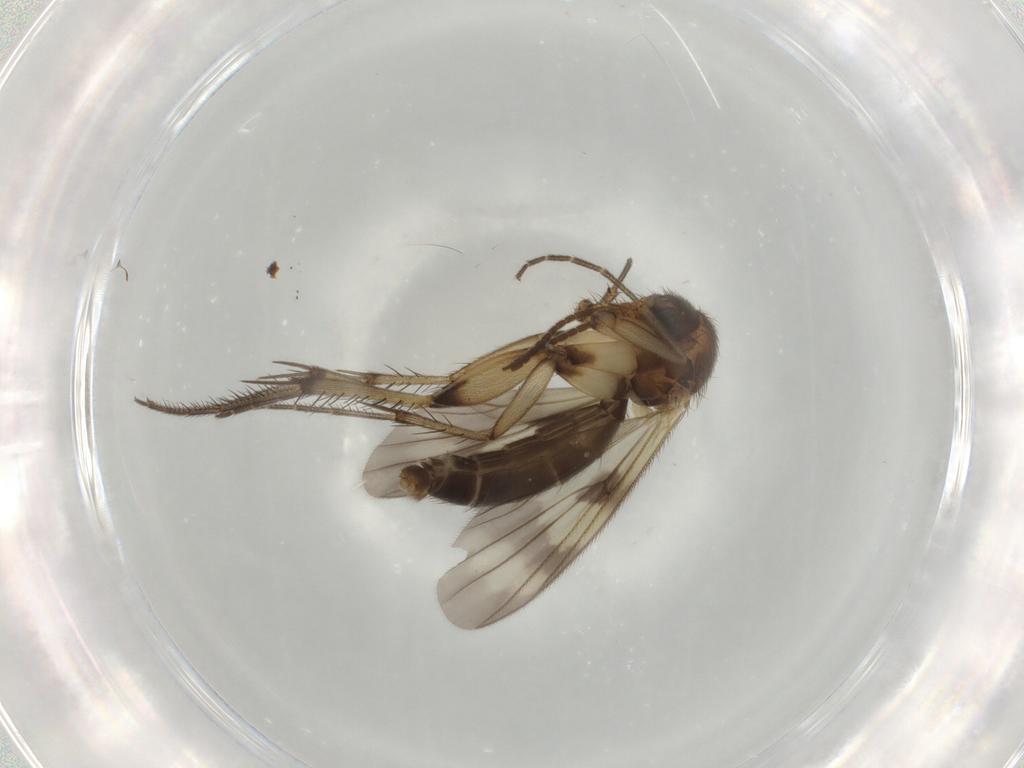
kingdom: Animalia
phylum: Arthropoda
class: Insecta
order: Diptera
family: Mycetophilidae
